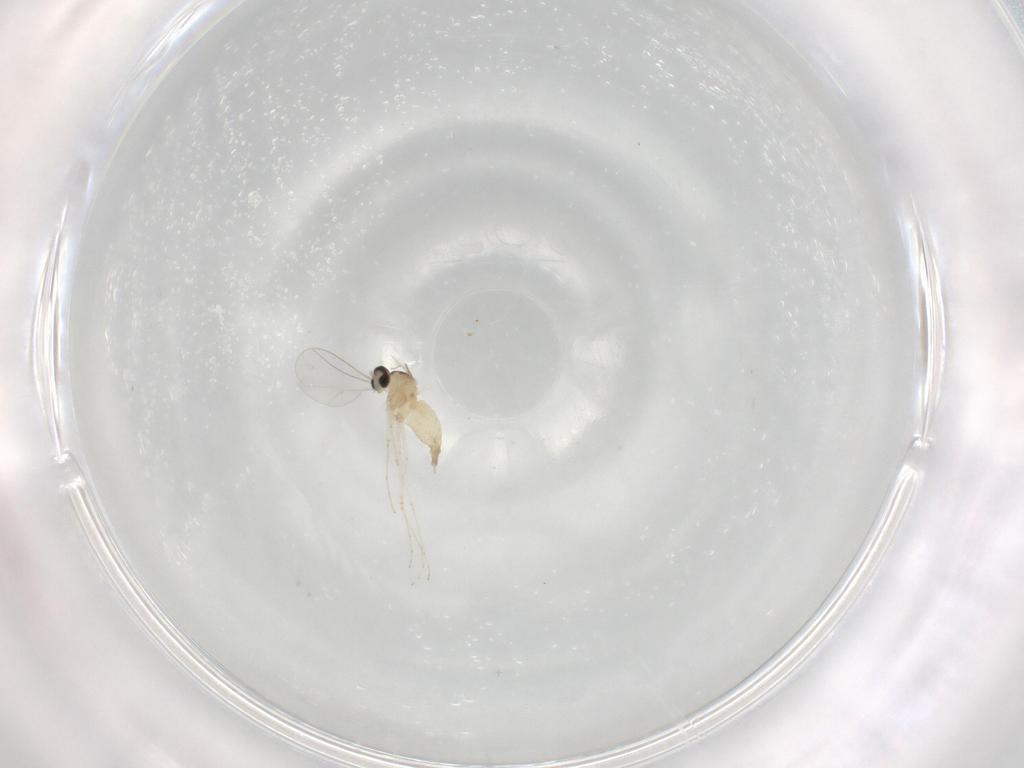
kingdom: Animalia
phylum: Arthropoda
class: Insecta
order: Diptera
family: Cecidomyiidae
